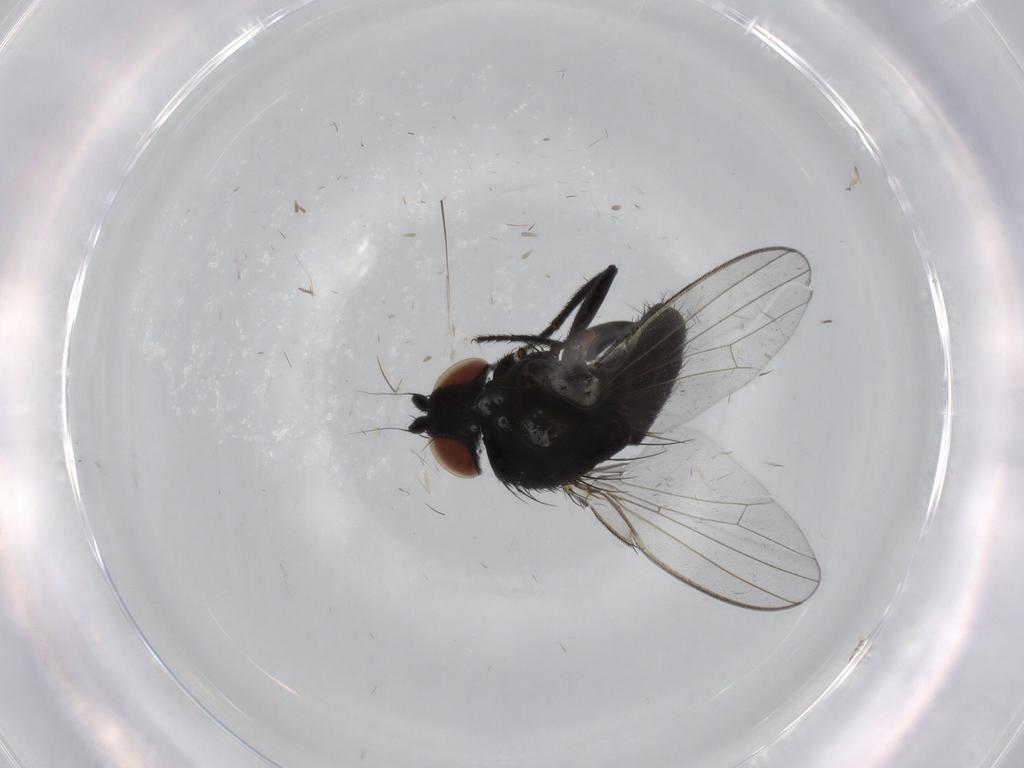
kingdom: Animalia
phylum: Arthropoda
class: Insecta
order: Diptera
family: Milichiidae
